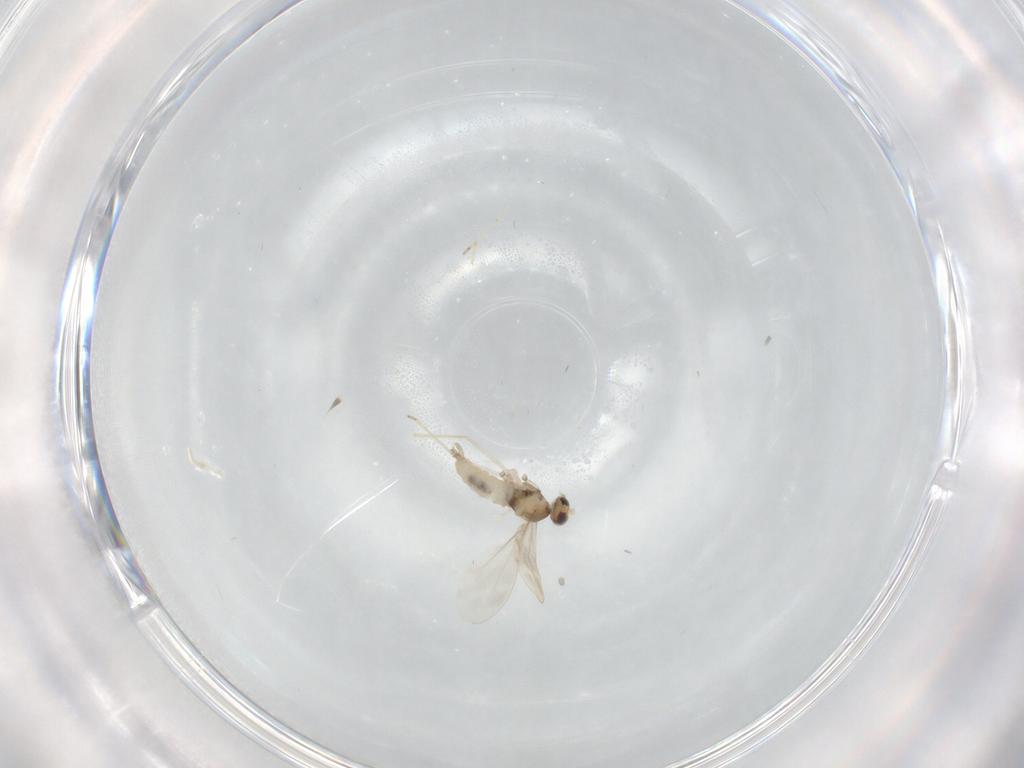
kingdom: Animalia
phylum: Arthropoda
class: Insecta
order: Diptera
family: Cecidomyiidae
